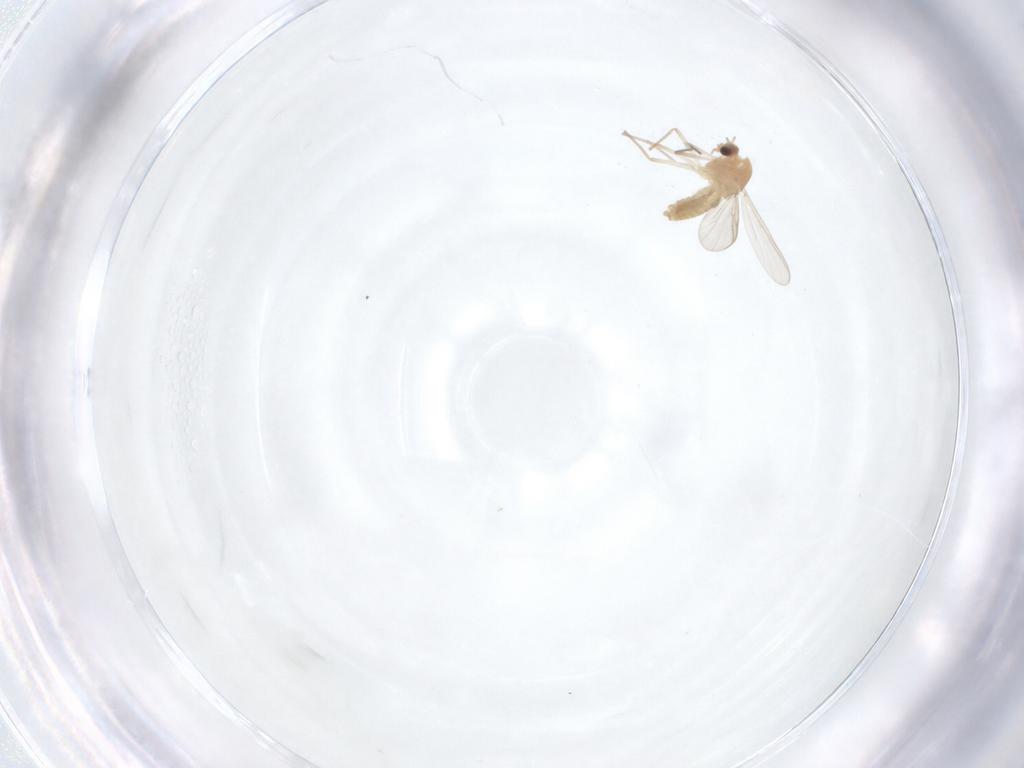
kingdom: Animalia
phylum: Arthropoda
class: Insecta
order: Diptera
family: Chironomidae
